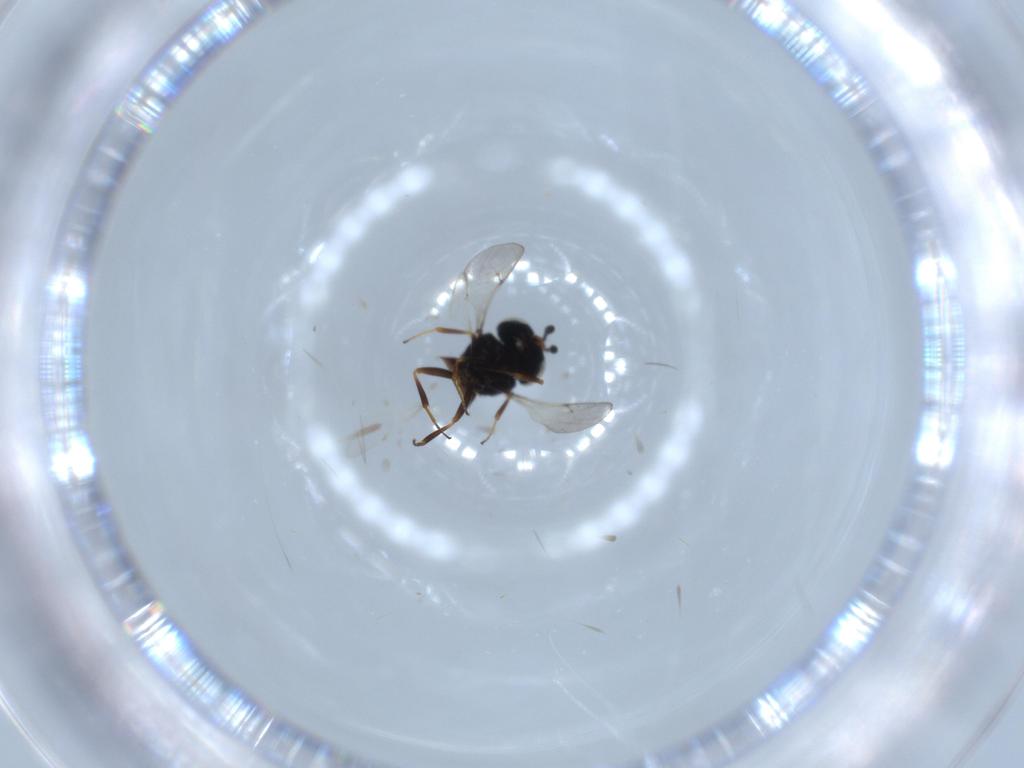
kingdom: Animalia
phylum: Arthropoda
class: Insecta
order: Hymenoptera
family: Scelionidae
